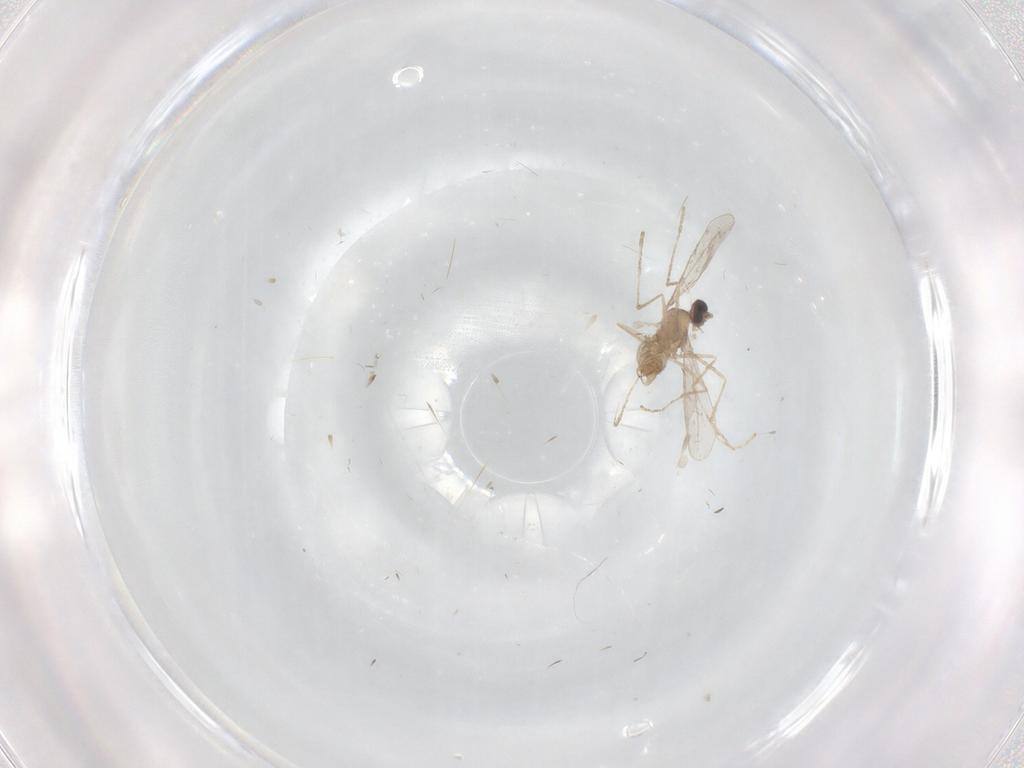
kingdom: Animalia
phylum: Arthropoda
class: Insecta
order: Diptera
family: Cecidomyiidae
